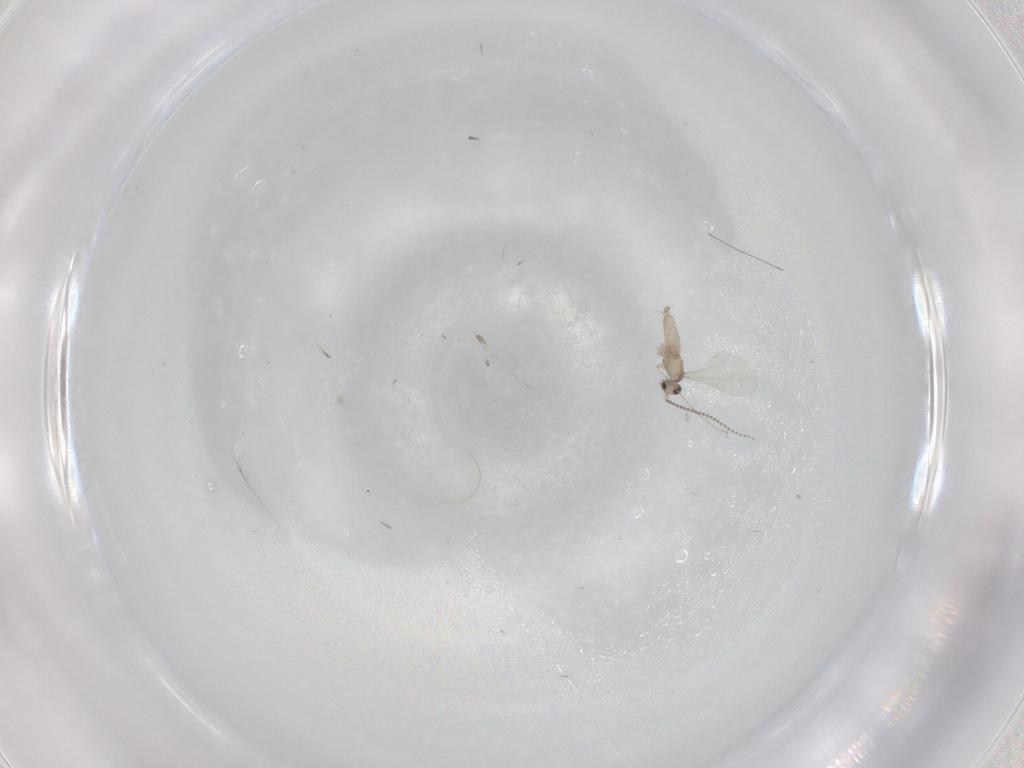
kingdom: Animalia
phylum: Arthropoda
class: Insecta
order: Diptera
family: Cecidomyiidae
